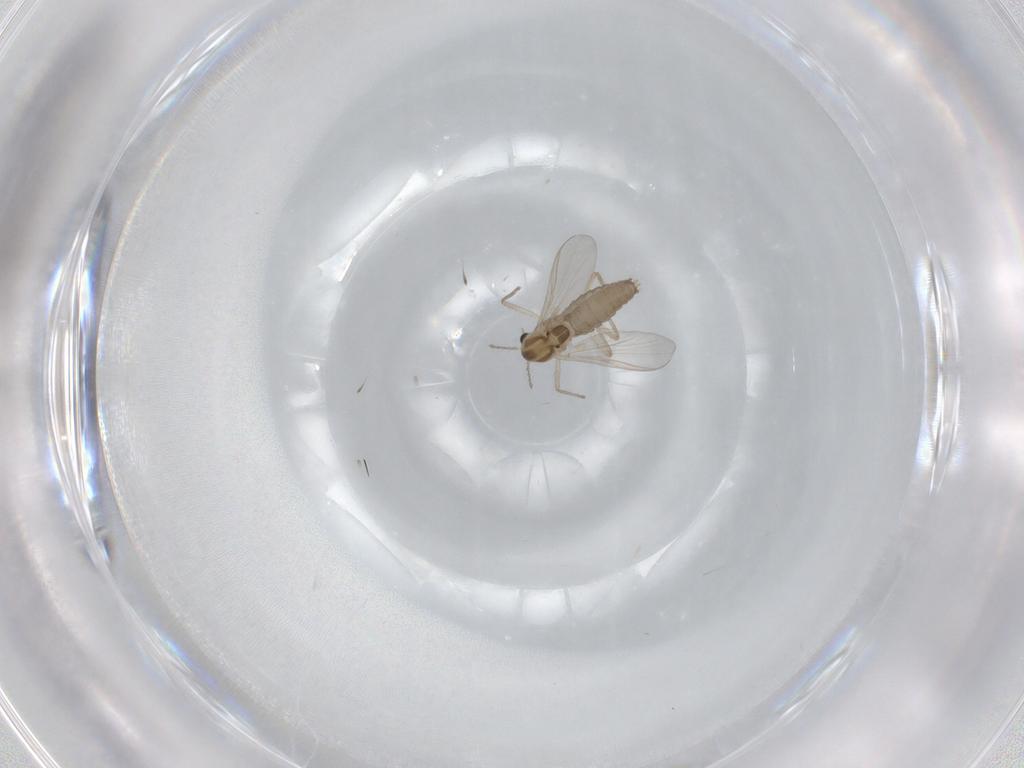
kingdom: Animalia
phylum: Arthropoda
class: Insecta
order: Diptera
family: Chironomidae
